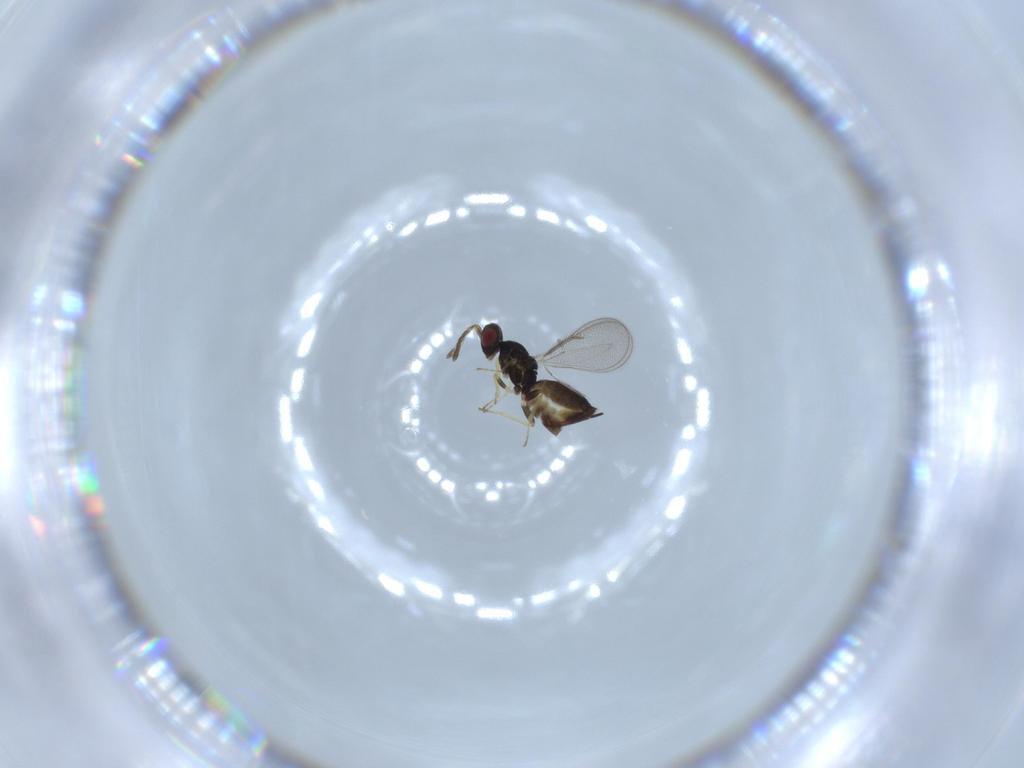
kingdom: Animalia
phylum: Arthropoda
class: Insecta
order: Hymenoptera
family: Eulophidae
